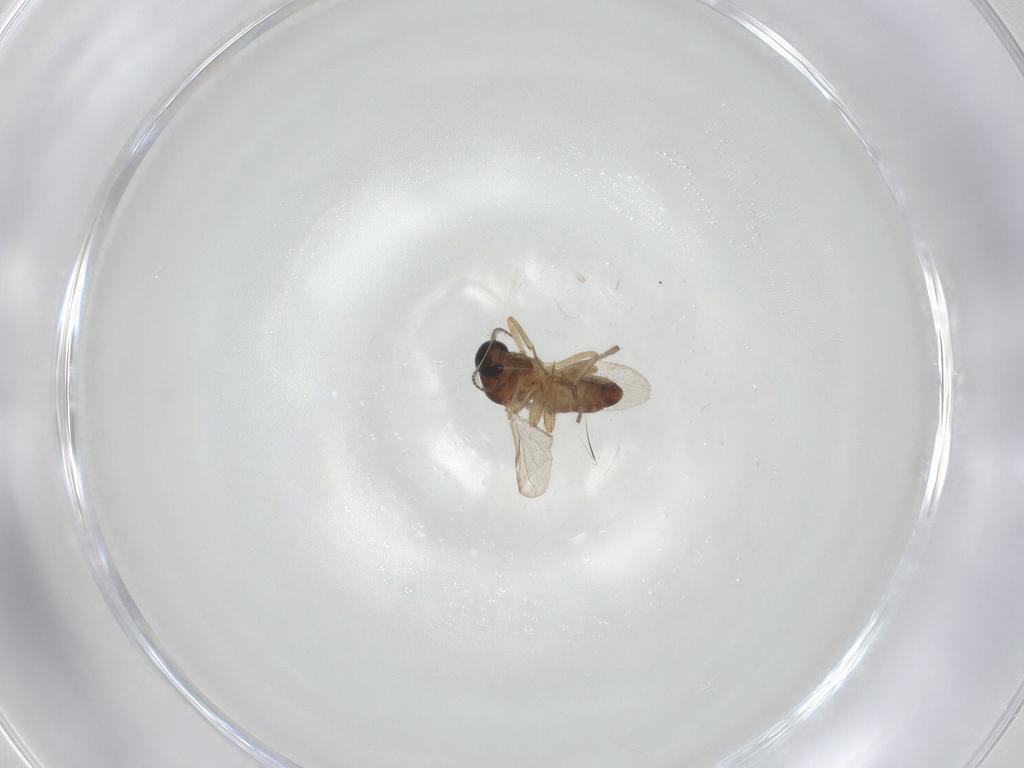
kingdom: Animalia
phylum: Arthropoda
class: Insecta
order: Diptera
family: Ceratopogonidae
